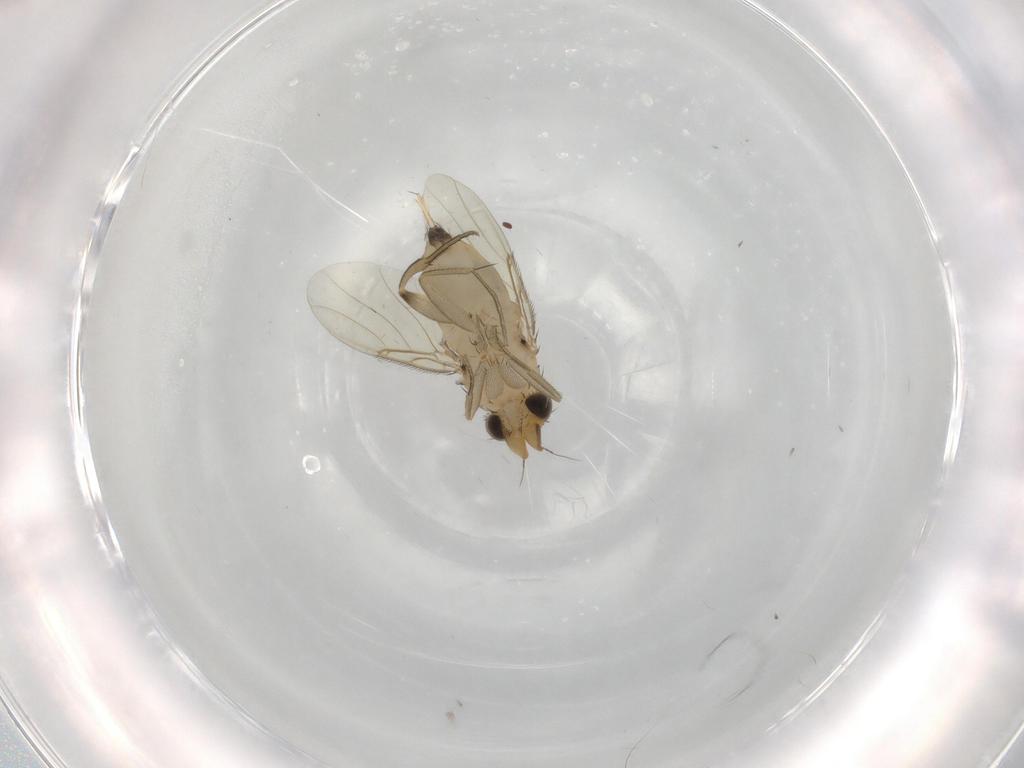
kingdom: Animalia
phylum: Arthropoda
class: Insecta
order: Diptera
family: Phoridae
